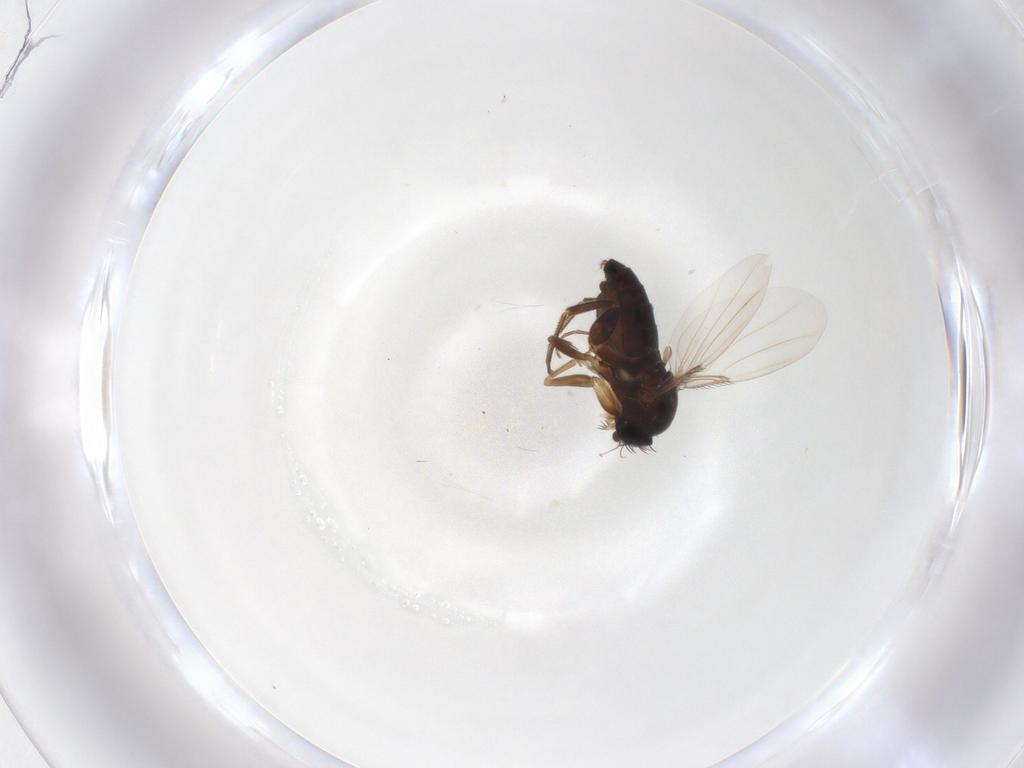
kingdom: Animalia
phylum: Arthropoda
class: Insecta
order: Diptera
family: Phoridae
